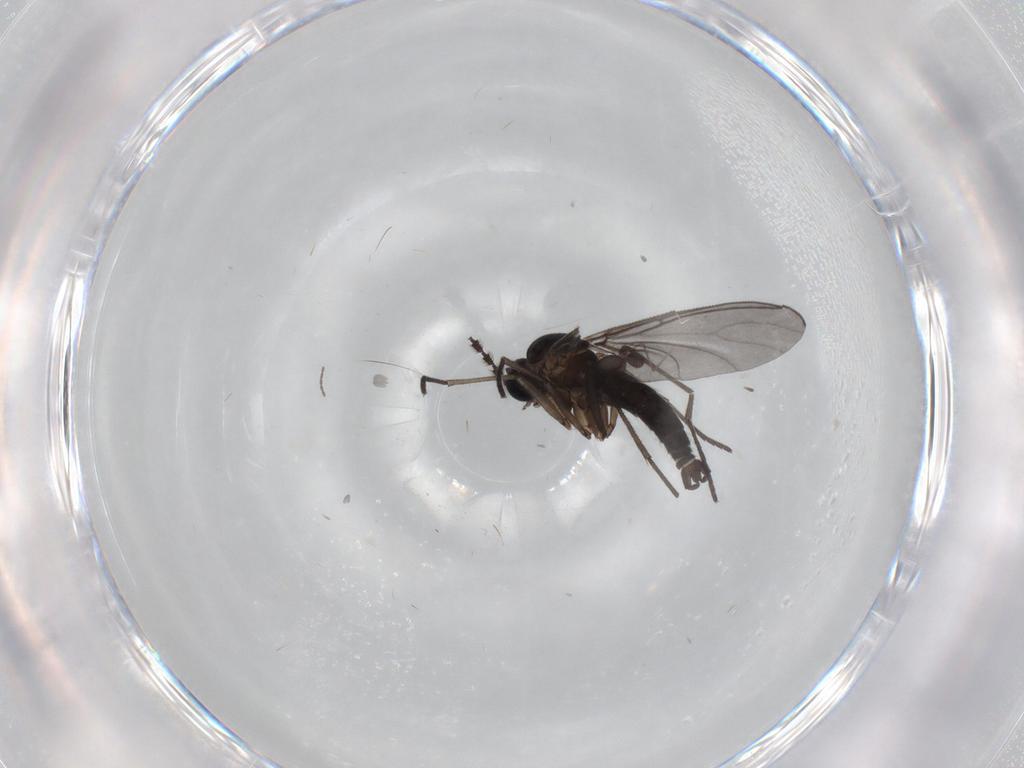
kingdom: Animalia
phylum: Arthropoda
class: Insecta
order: Diptera
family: Sciaridae
